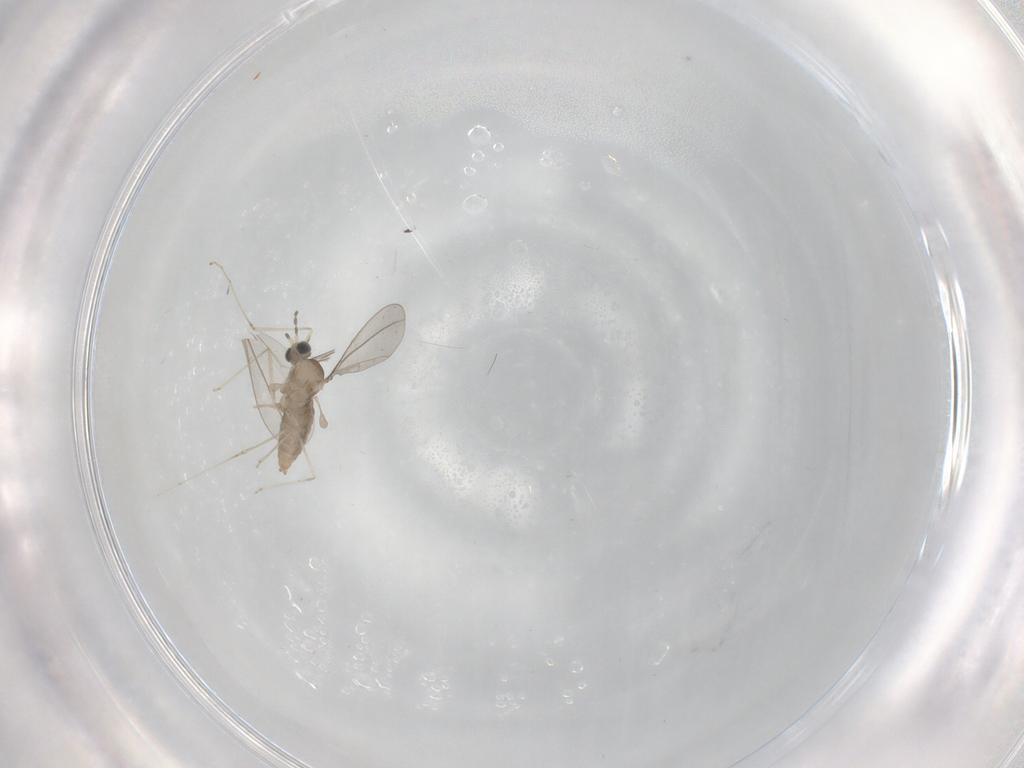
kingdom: Animalia
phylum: Arthropoda
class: Insecta
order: Diptera
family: Cecidomyiidae
